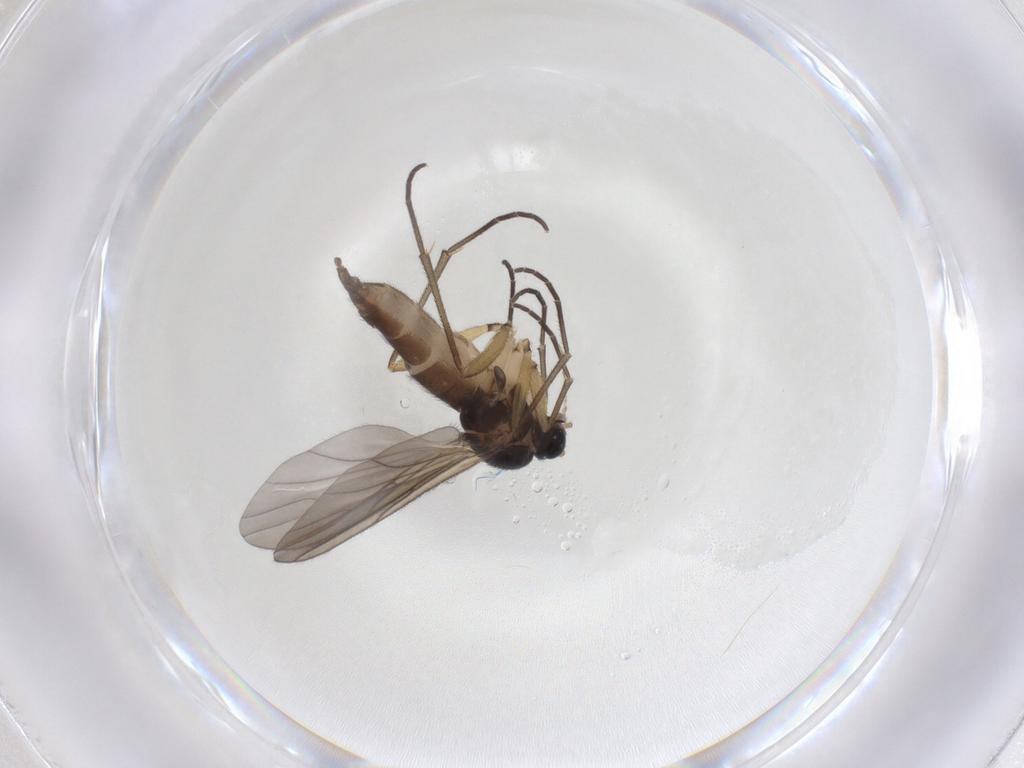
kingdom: Animalia
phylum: Arthropoda
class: Insecta
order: Diptera
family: Sciaridae
